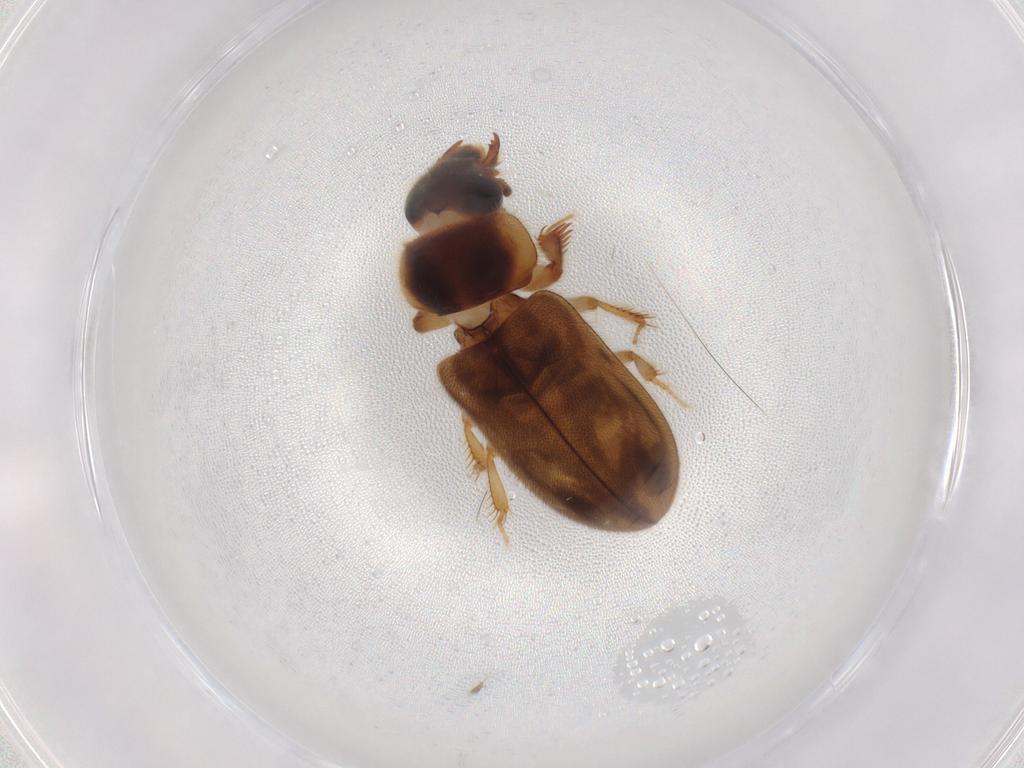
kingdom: Animalia
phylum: Arthropoda
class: Insecta
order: Coleoptera
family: Heteroceridae
